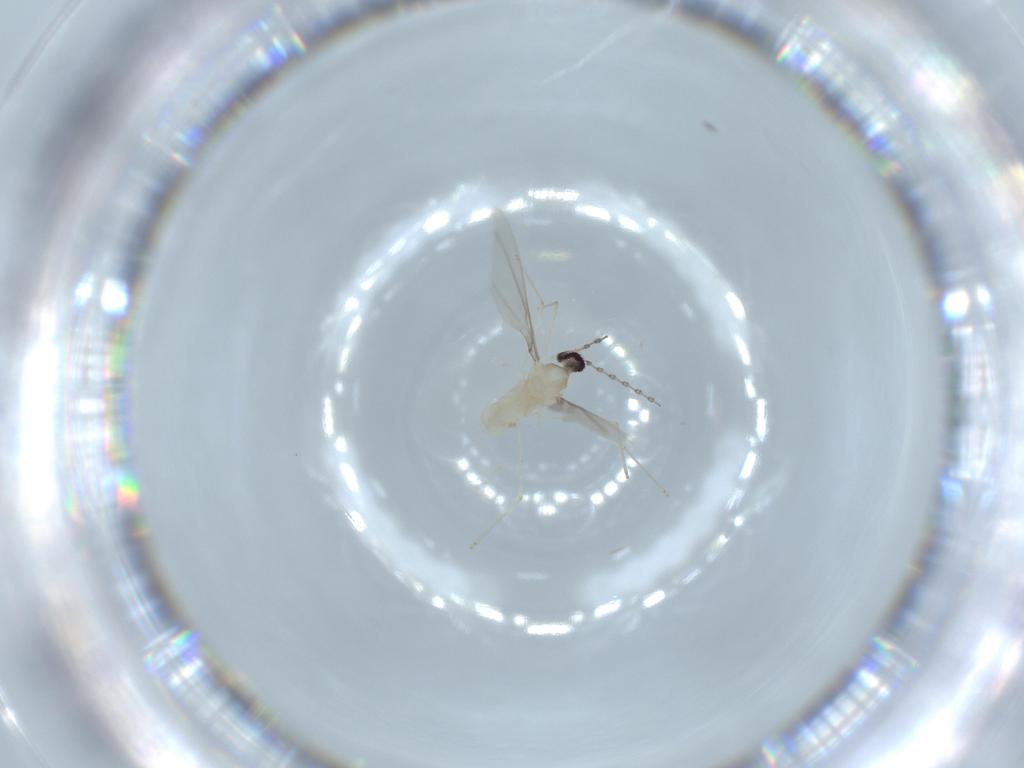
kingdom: Animalia
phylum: Arthropoda
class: Insecta
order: Diptera
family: Cecidomyiidae
